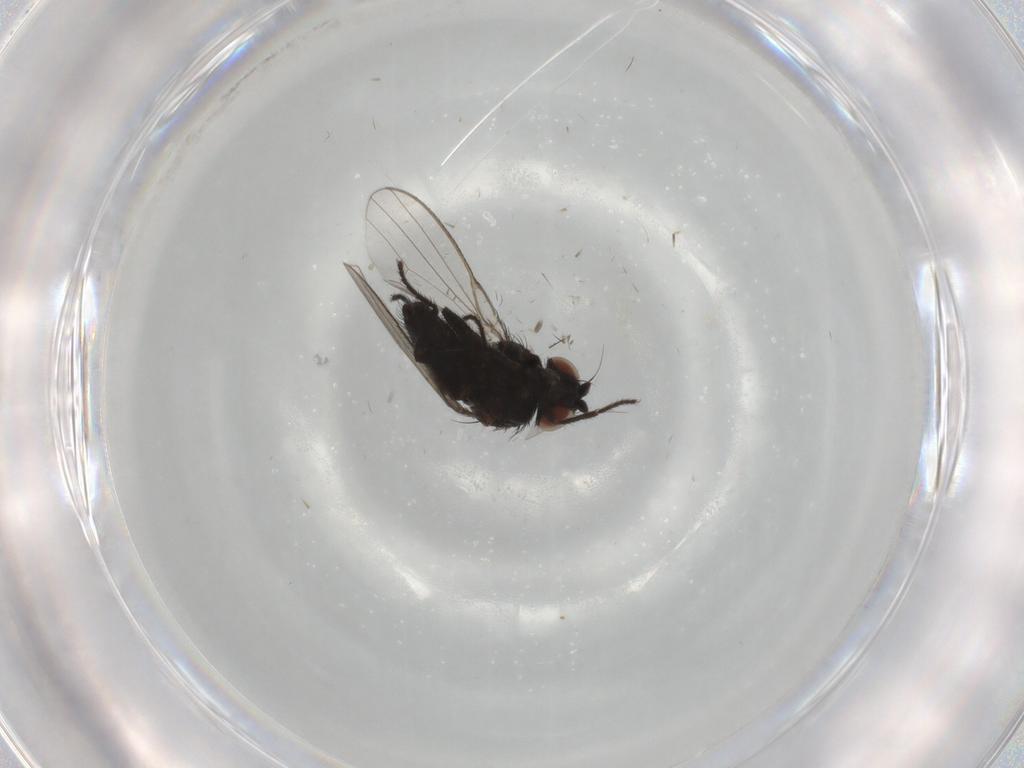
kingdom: Animalia
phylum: Arthropoda
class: Insecta
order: Diptera
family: Milichiidae
